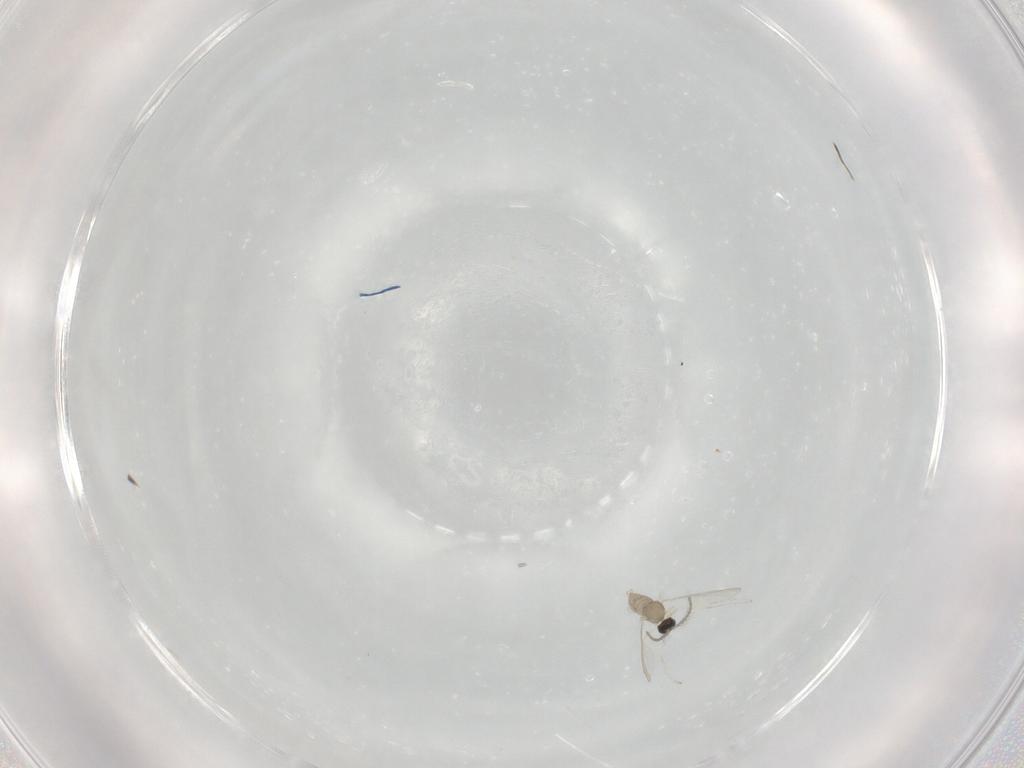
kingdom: Animalia
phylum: Arthropoda
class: Insecta
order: Diptera
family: Cecidomyiidae
